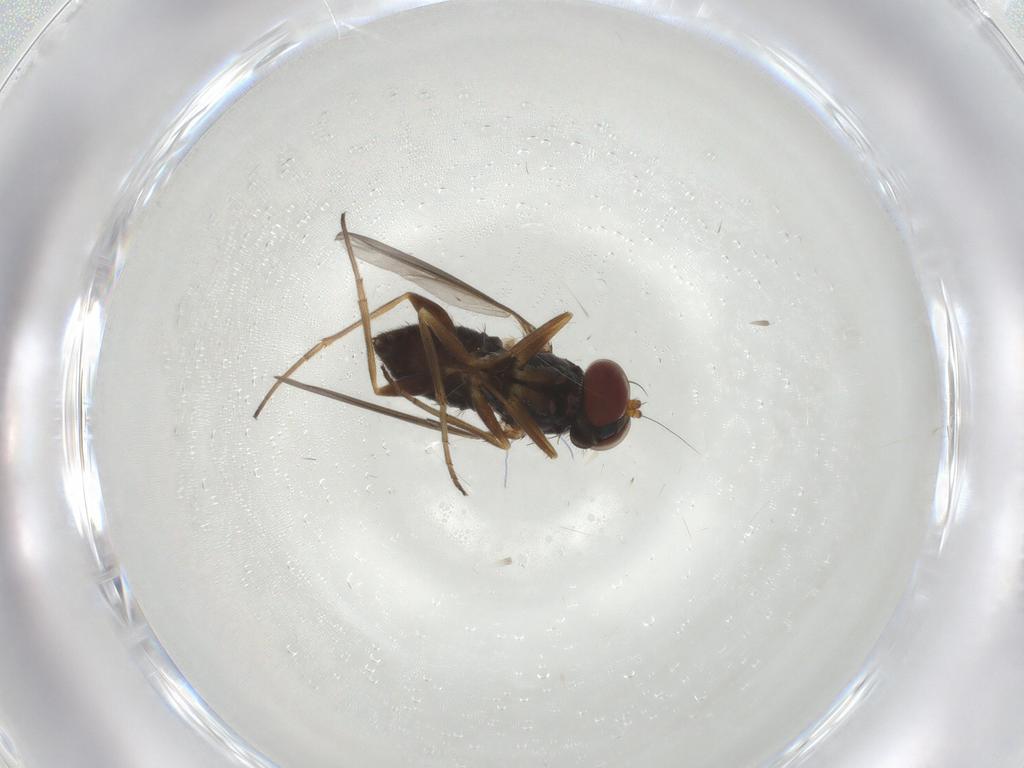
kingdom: Animalia
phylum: Arthropoda
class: Insecta
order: Diptera
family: Dolichopodidae
